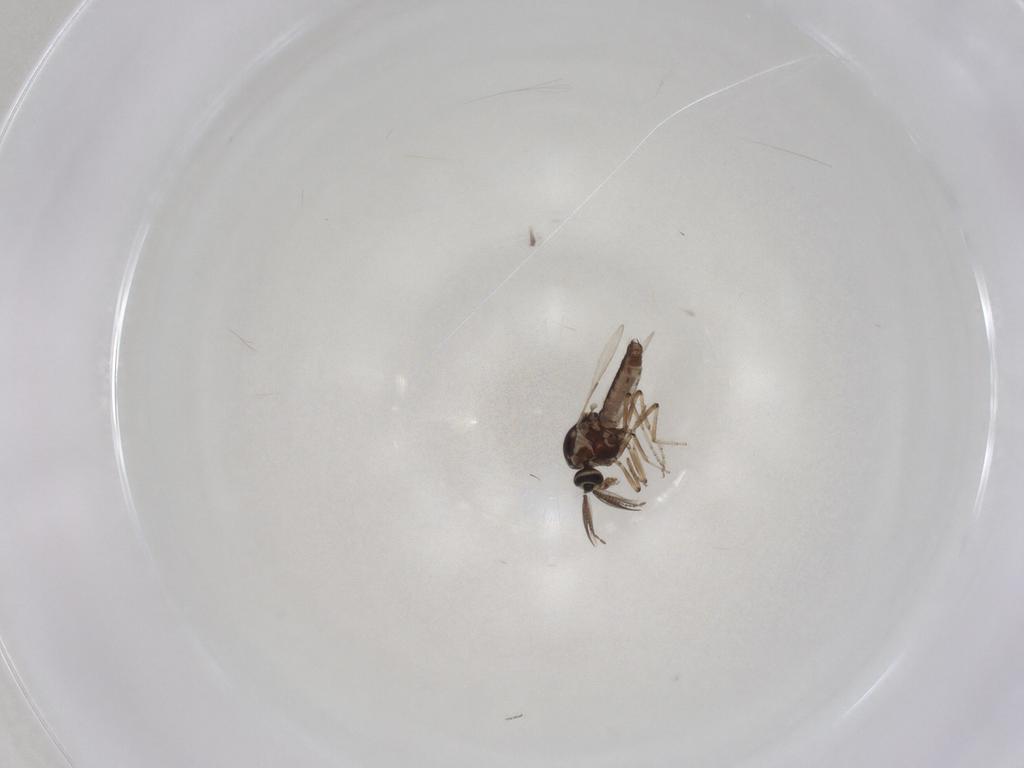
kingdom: Animalia
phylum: Arthropoda
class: Insecta
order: Diptera
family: Ceratopogonidae
